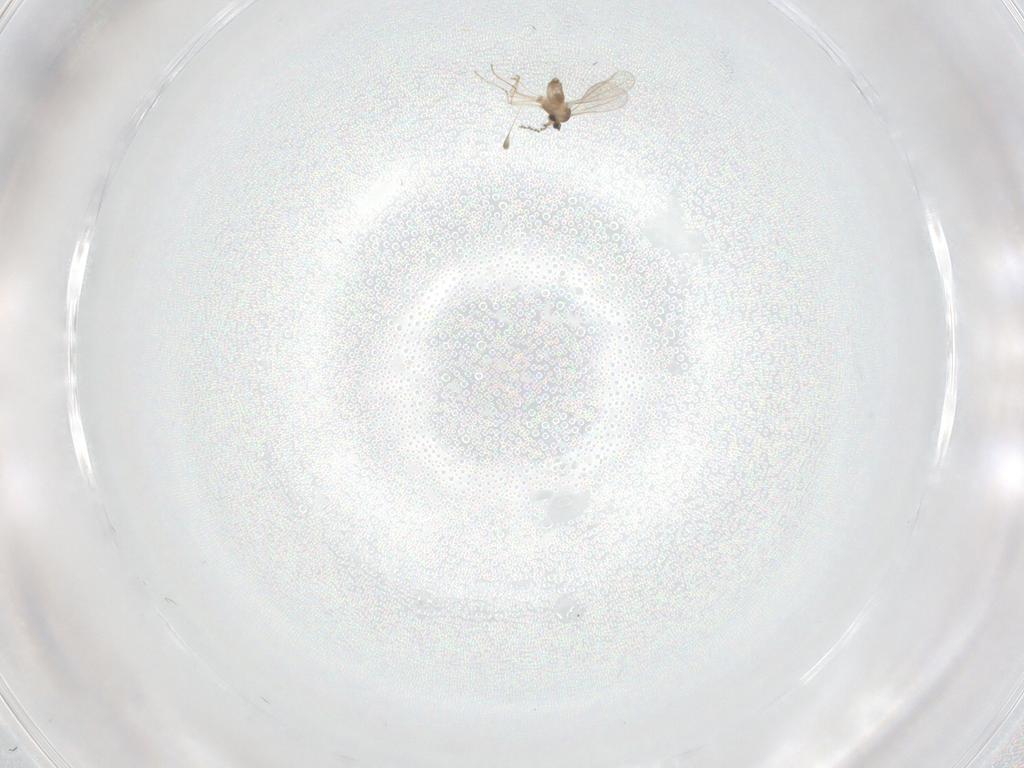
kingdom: Animalia
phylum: Arthropoda
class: Insecta
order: Diptera
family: Cecidomyiidae
